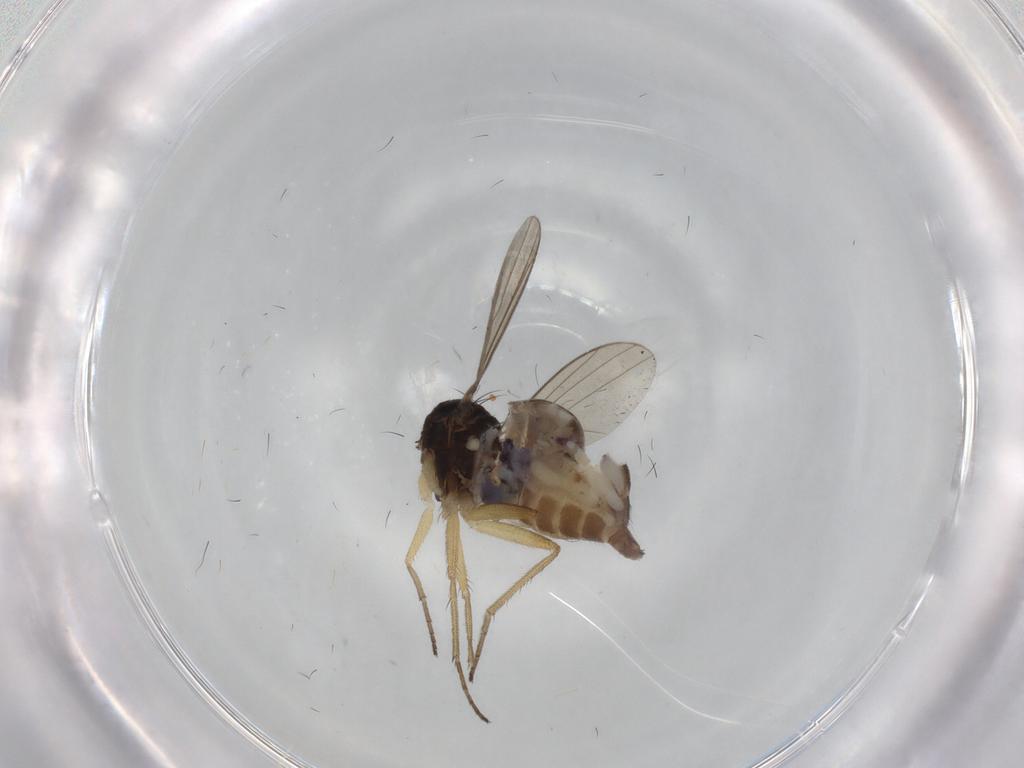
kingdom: Animalia
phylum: Arthropoda
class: Insecta
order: Diptera
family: Dolichopodidae
